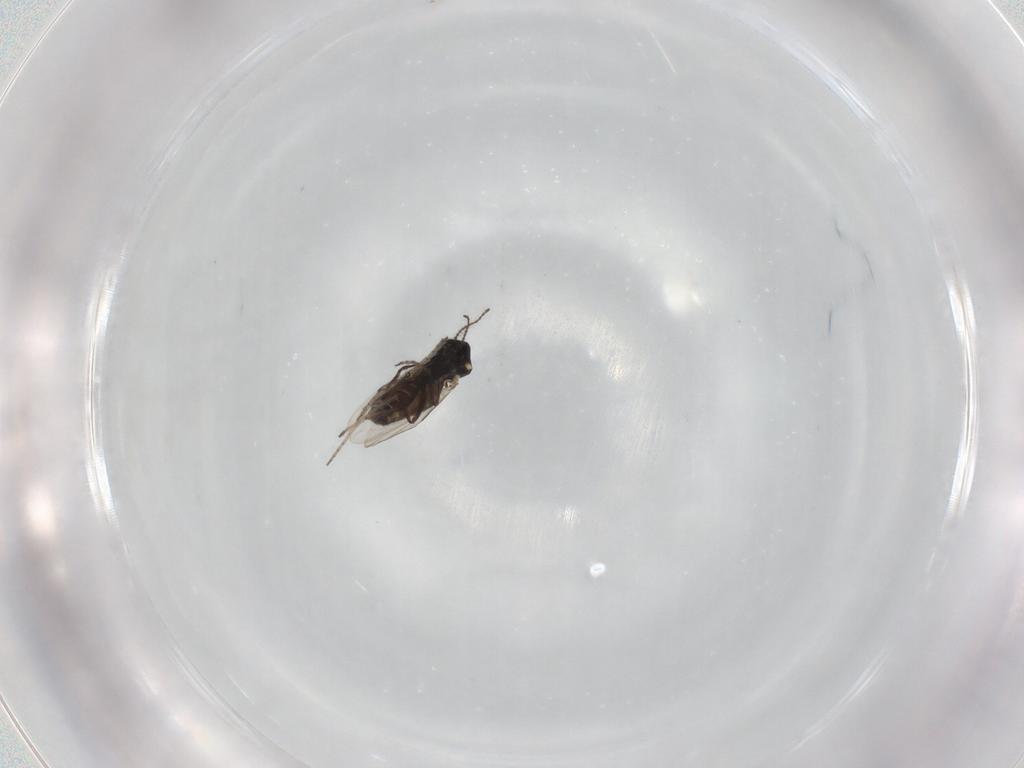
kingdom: Animalia
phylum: Arthropoda
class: Insecta
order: Diptera
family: Ceratopogonidae
